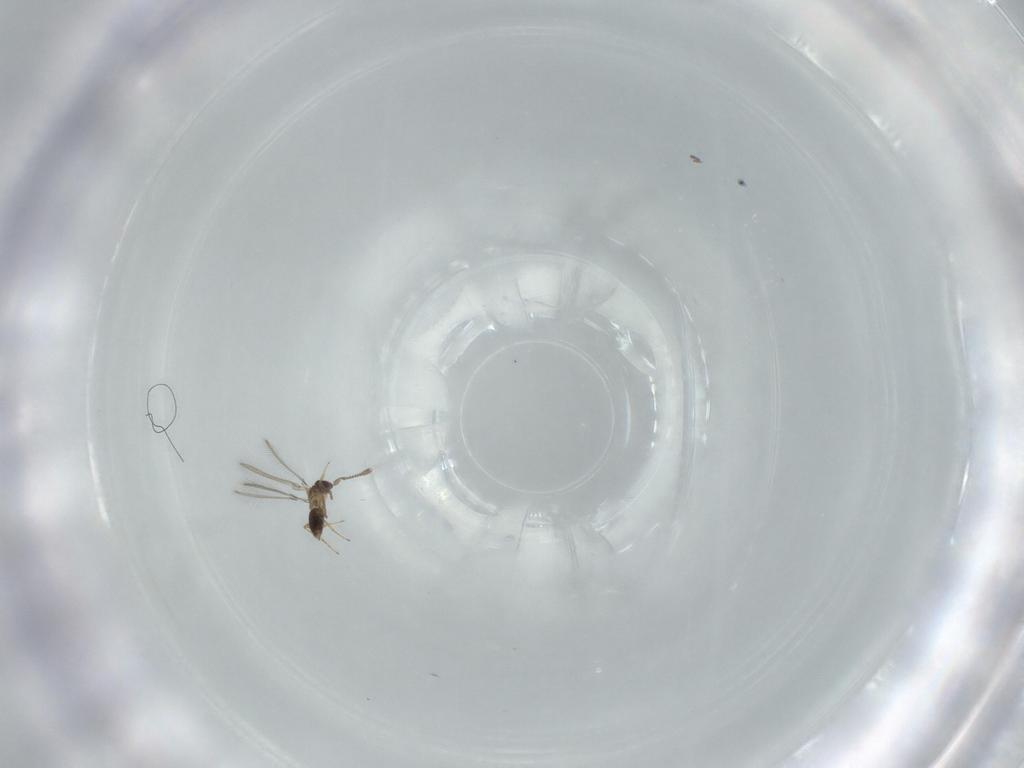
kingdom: Animalia
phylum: Arthropoda
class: Insecta
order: Hymenoptera
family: Mymaridae
